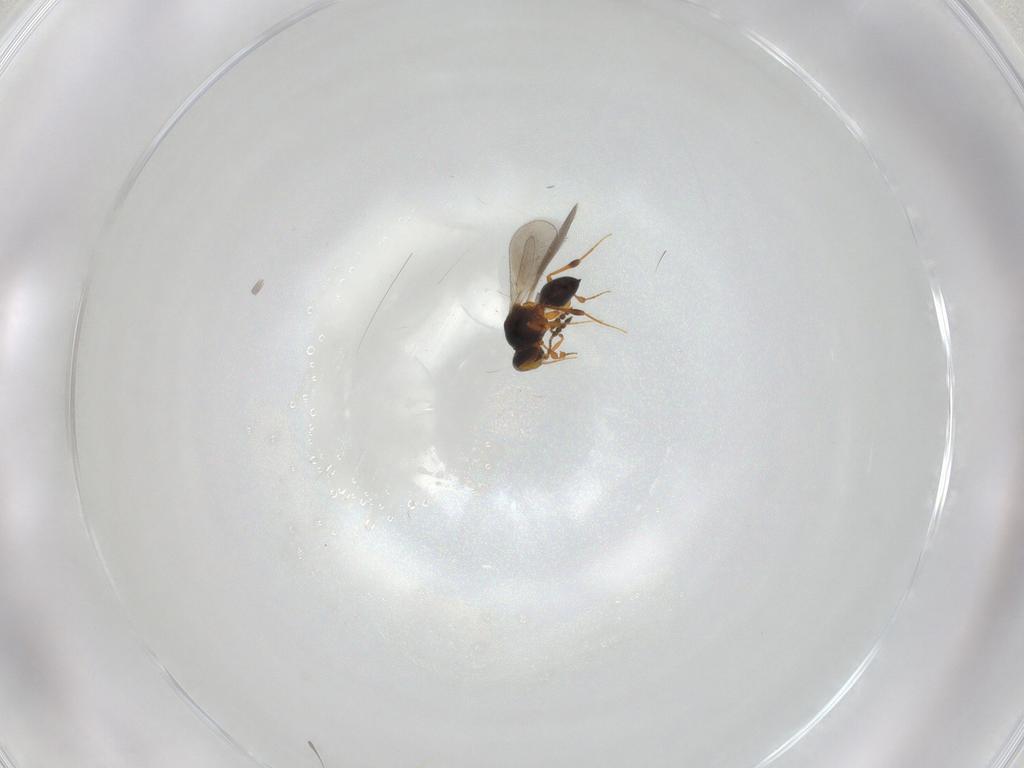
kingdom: Animalia
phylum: Arthropoda
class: Insecta
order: Hymenoptera
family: Platygastridae
